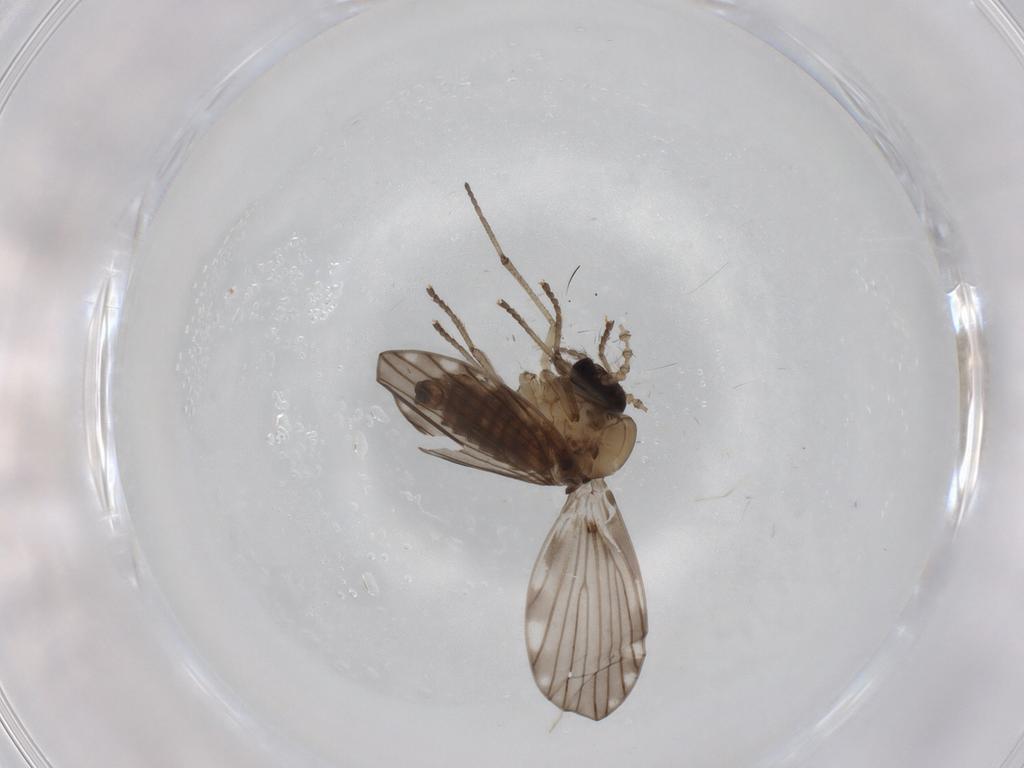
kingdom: Animalia
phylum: Arthropoda
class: Insecta
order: Diptera
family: Psychodidae
